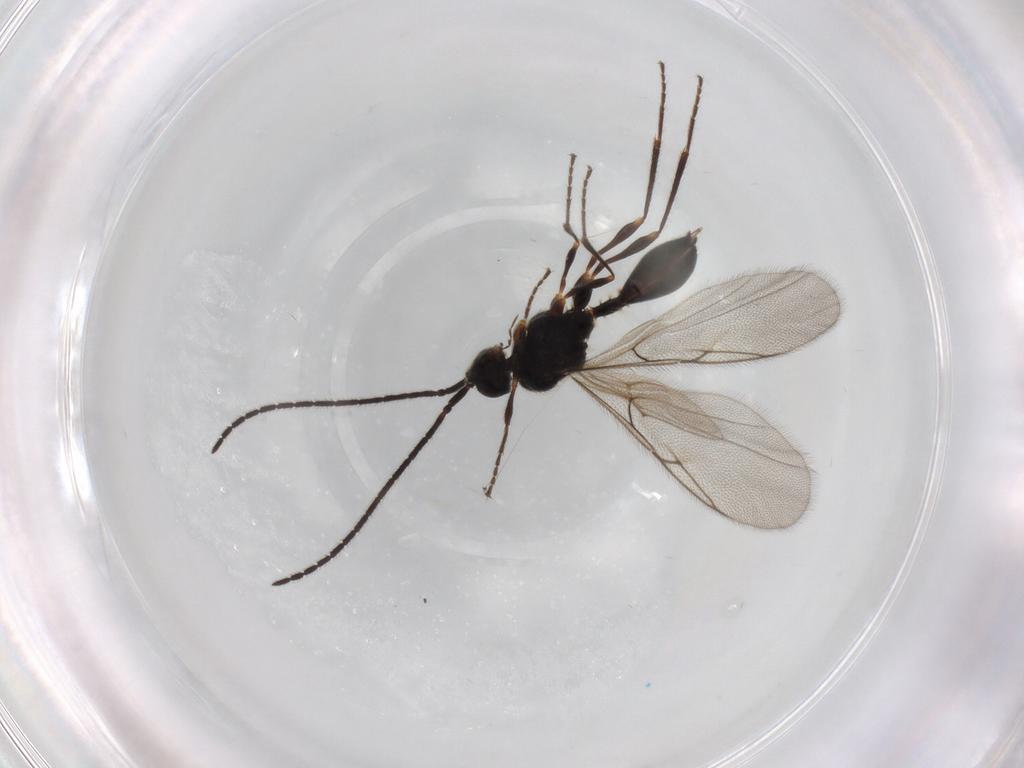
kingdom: Animalia
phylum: Arthropoda
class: Insecta
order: Hymenoptera
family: Diapriidae
